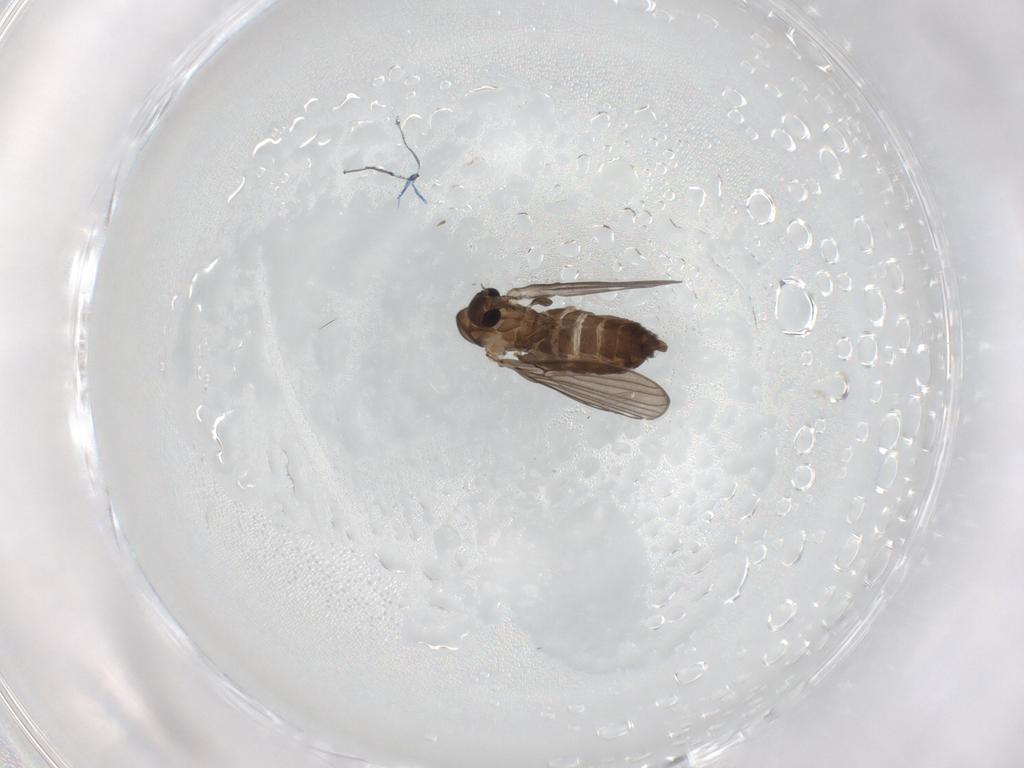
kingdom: Animalia
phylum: Arthropoda
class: Insecta
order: Diptera
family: Psychodidae
